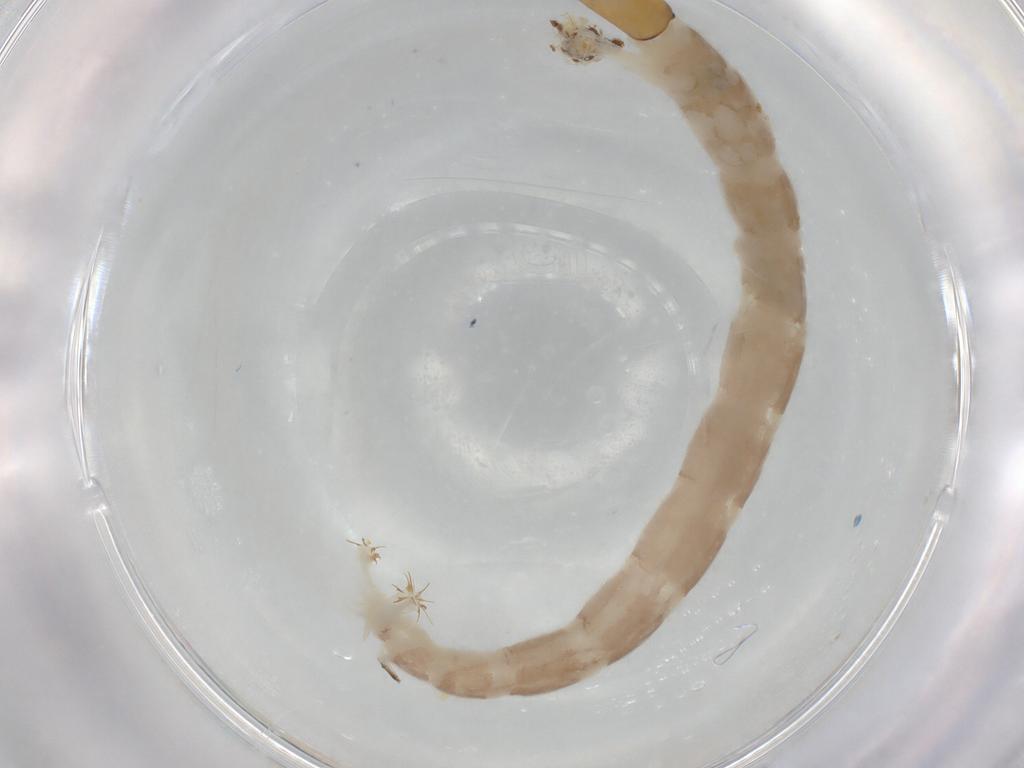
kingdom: Animalia
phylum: Arthropoda
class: Insecta
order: Diptera
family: Chironomidae
